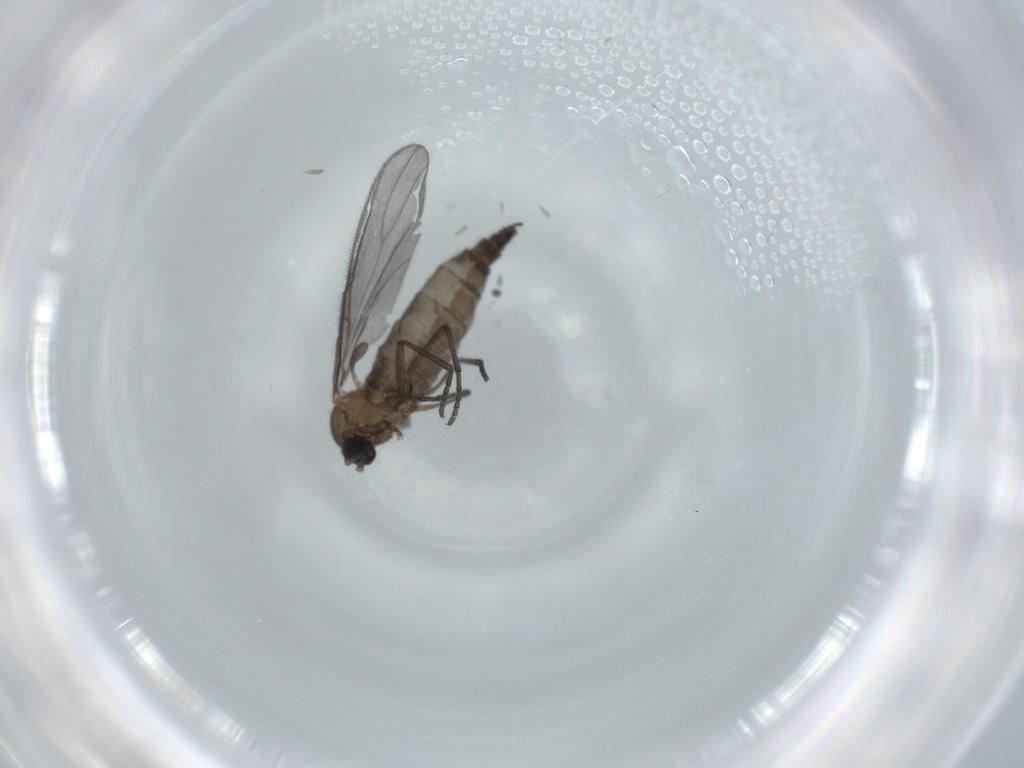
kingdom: Animalia
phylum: Arthropoda
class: Insecta
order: Diptera
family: Sciaridae
